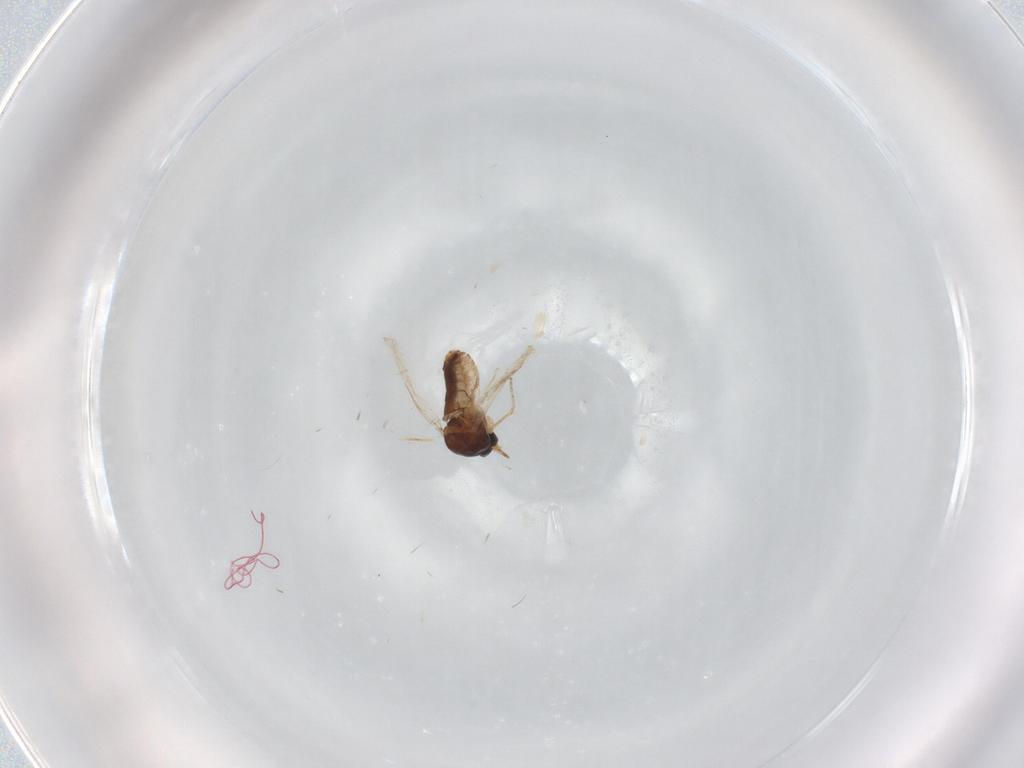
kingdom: Animalia
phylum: Arthropoda
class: Insecta
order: Diptera
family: Ceratopogonidae
